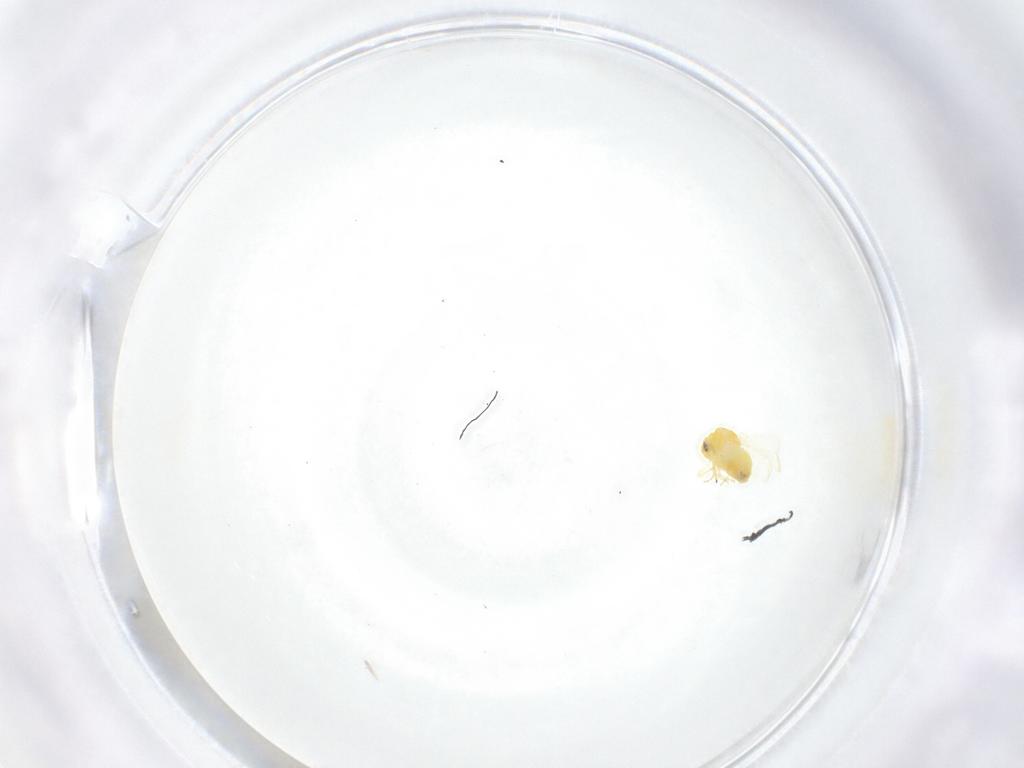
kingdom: Animalia
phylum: Arthropoda
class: Insecta
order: Hemiptera
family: Aleyrodidae
